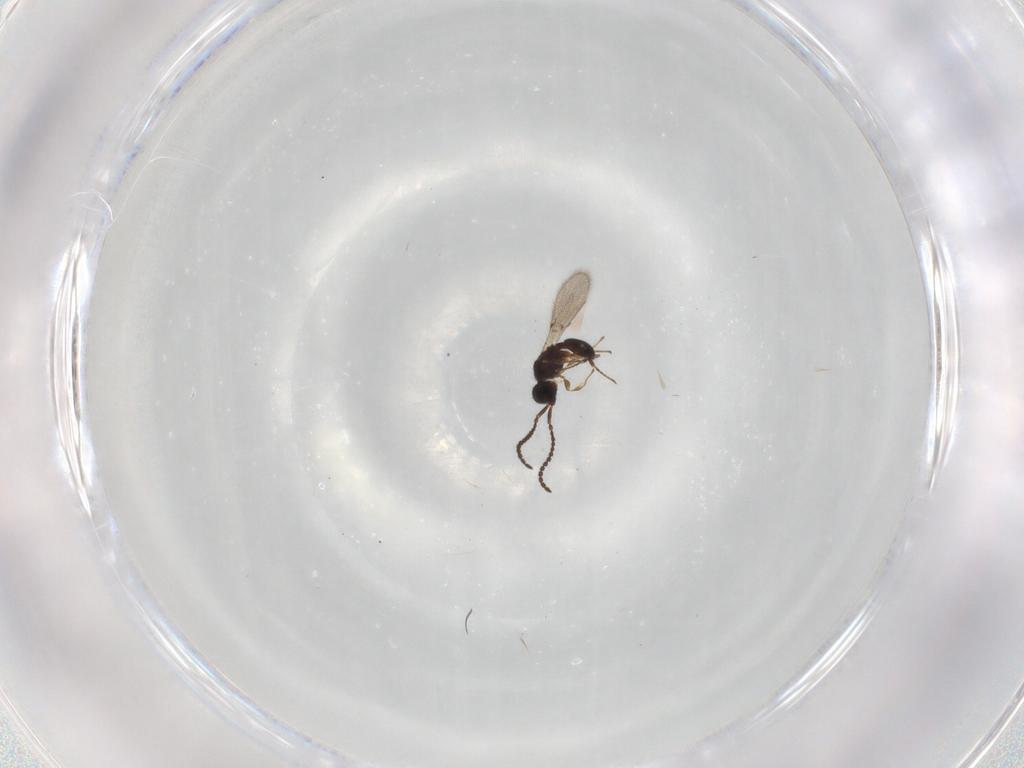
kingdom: Animalia
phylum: Arthropoda
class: Insecta
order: Hymenoptera
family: Diapriidae
